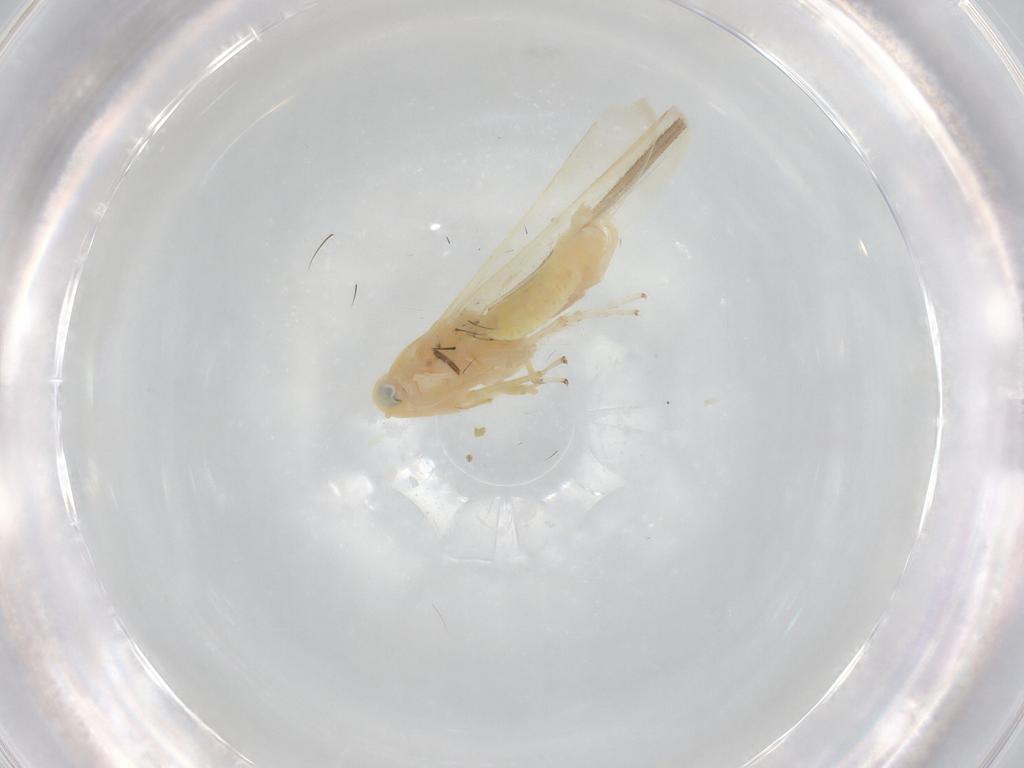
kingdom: Animalia
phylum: Arthropoda
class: Insecta
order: Hemiptera
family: Cicadellidae
